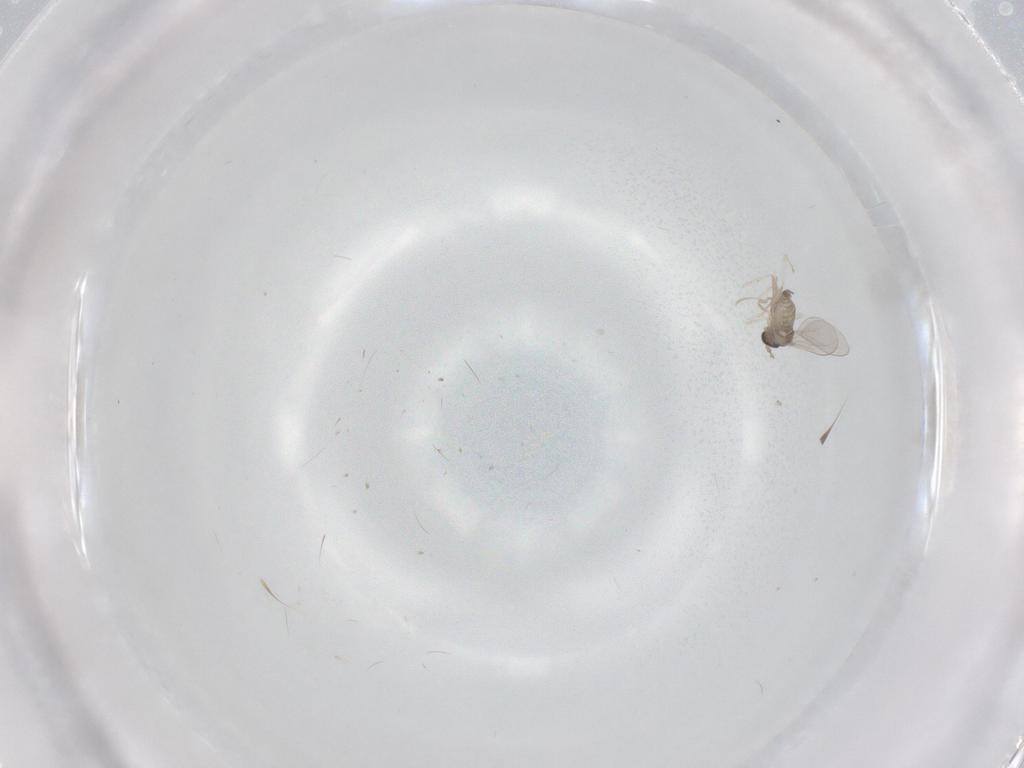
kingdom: Animalia
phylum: Arthropoda
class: Insecta
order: Diptera
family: Cecidomyiidae
